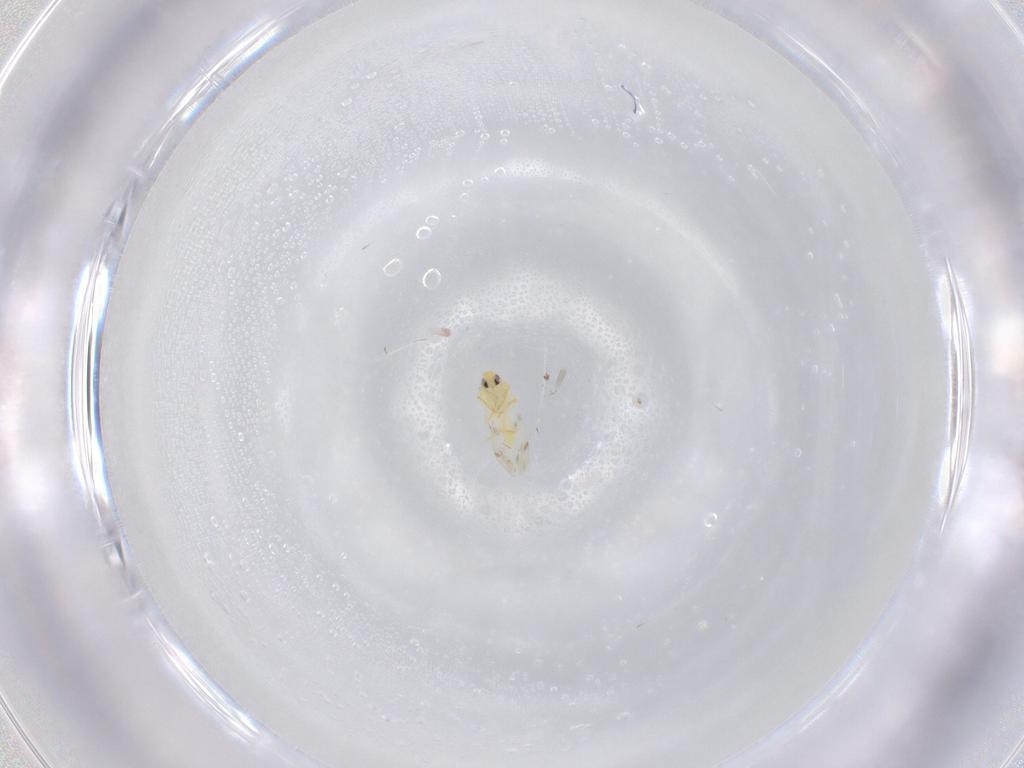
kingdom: Animalia
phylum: Arthropoda
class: Insecta
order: Hemiptera
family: Aleyrodidae
